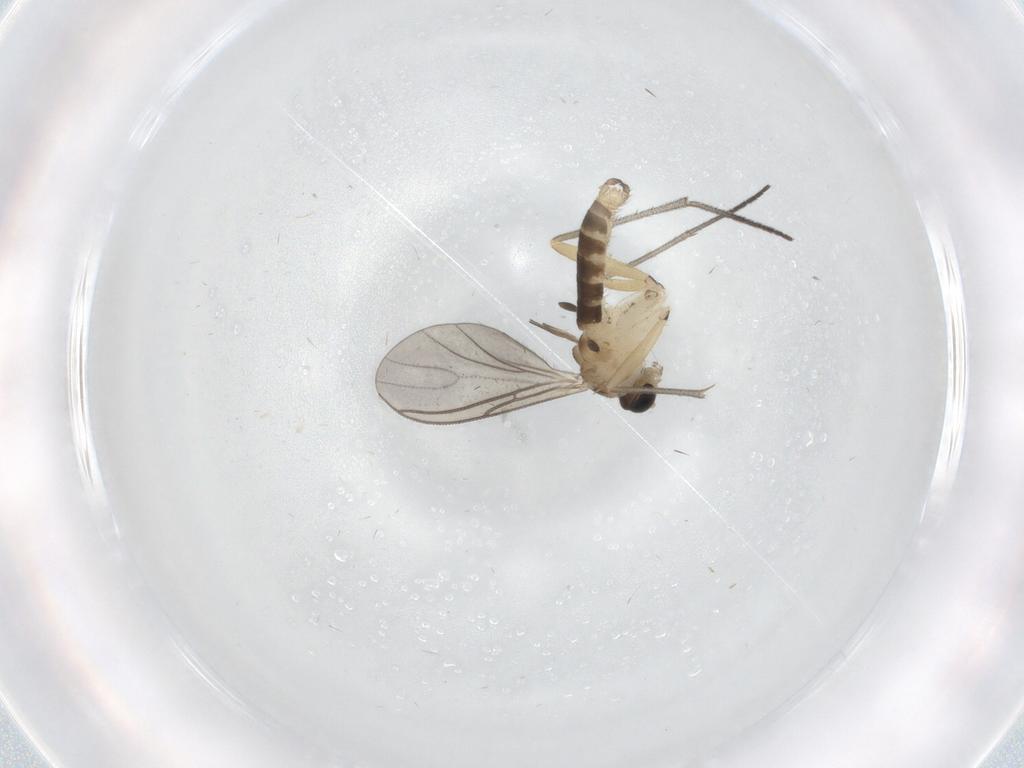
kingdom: Animalia
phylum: Arthropoda
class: Insecta
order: Diptera
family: Sciaridae
